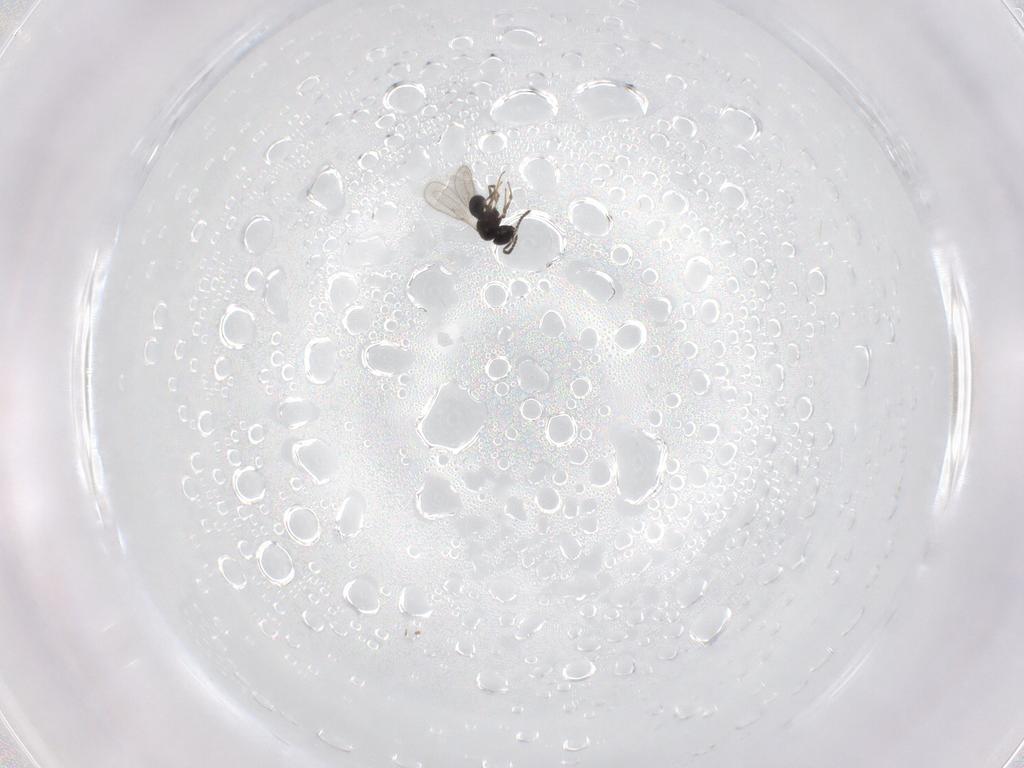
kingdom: Animalia
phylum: Arthropoda
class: Insecta
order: Hymenoptera
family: Scelionidae
